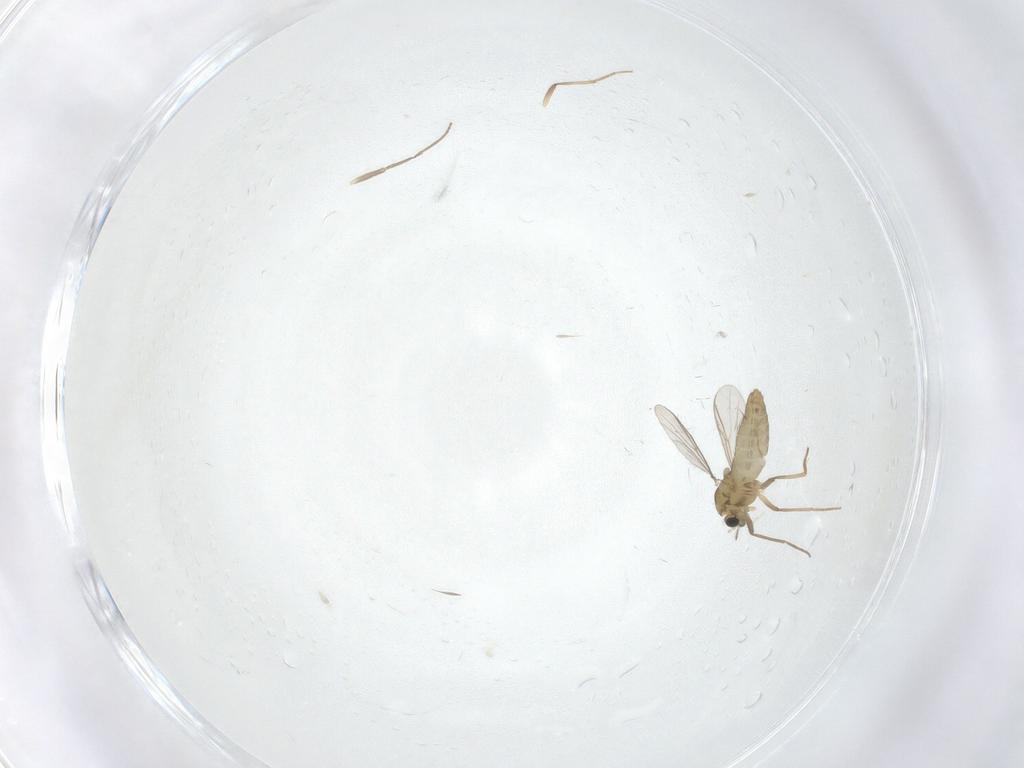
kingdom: Animalia
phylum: Arthropoda
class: Insecta
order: Diptera
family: Chironomidae
